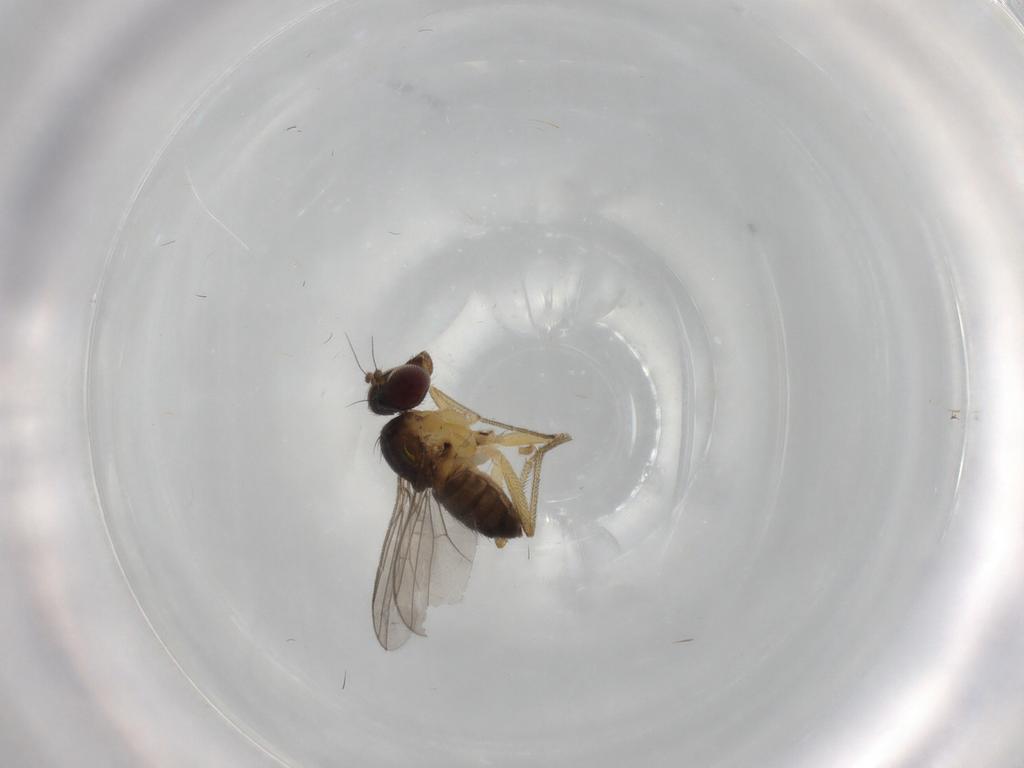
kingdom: Animalia
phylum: Arthropoda
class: Insecta
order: Diptera
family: Dolichopodidae
